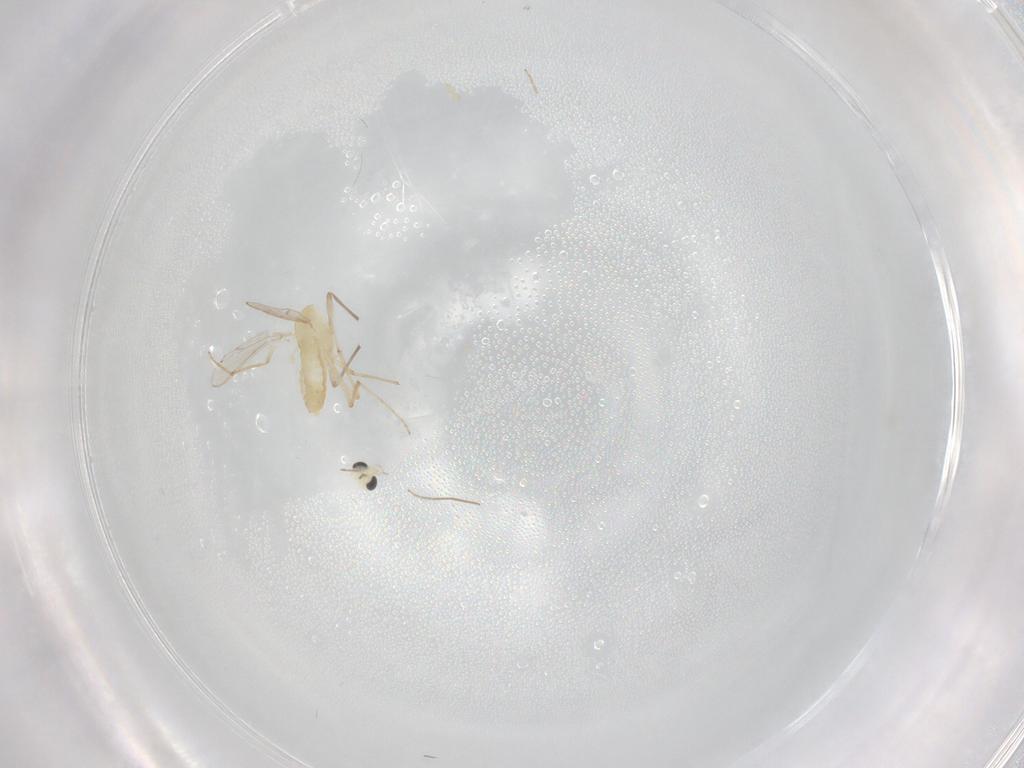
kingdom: Animalia
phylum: Arthropoda
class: Insecta
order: Diptera
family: Chironomidae
